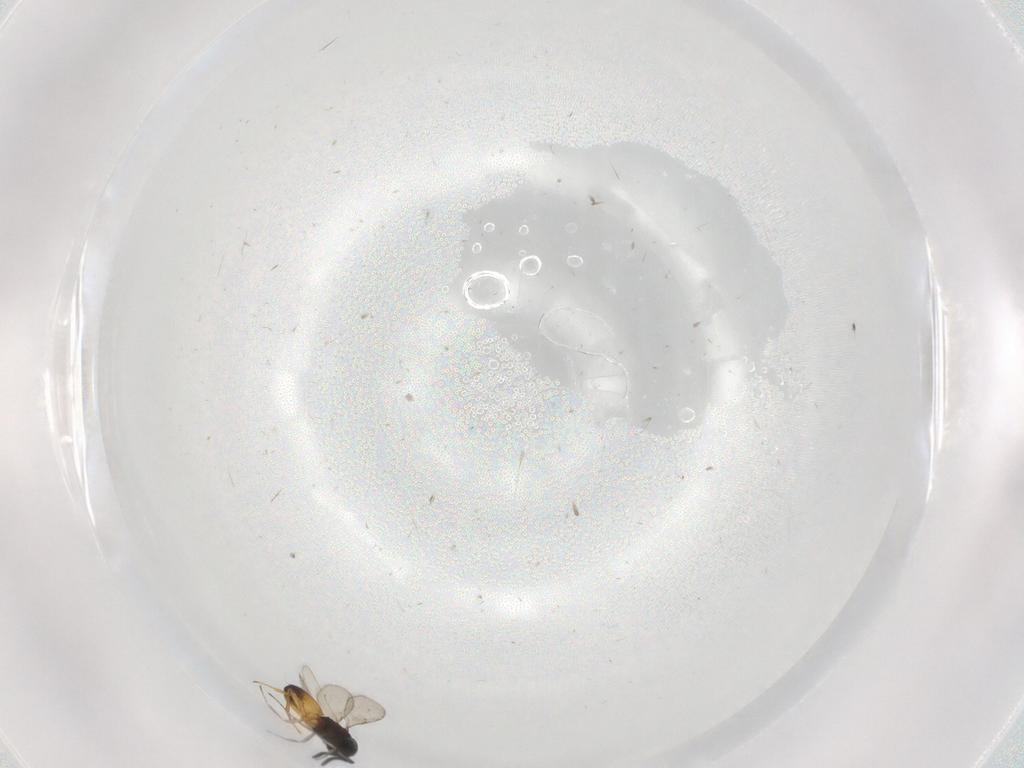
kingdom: Animalia
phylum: Arthropoda
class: Insecta
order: Hymenoptera
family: Scelionidae
